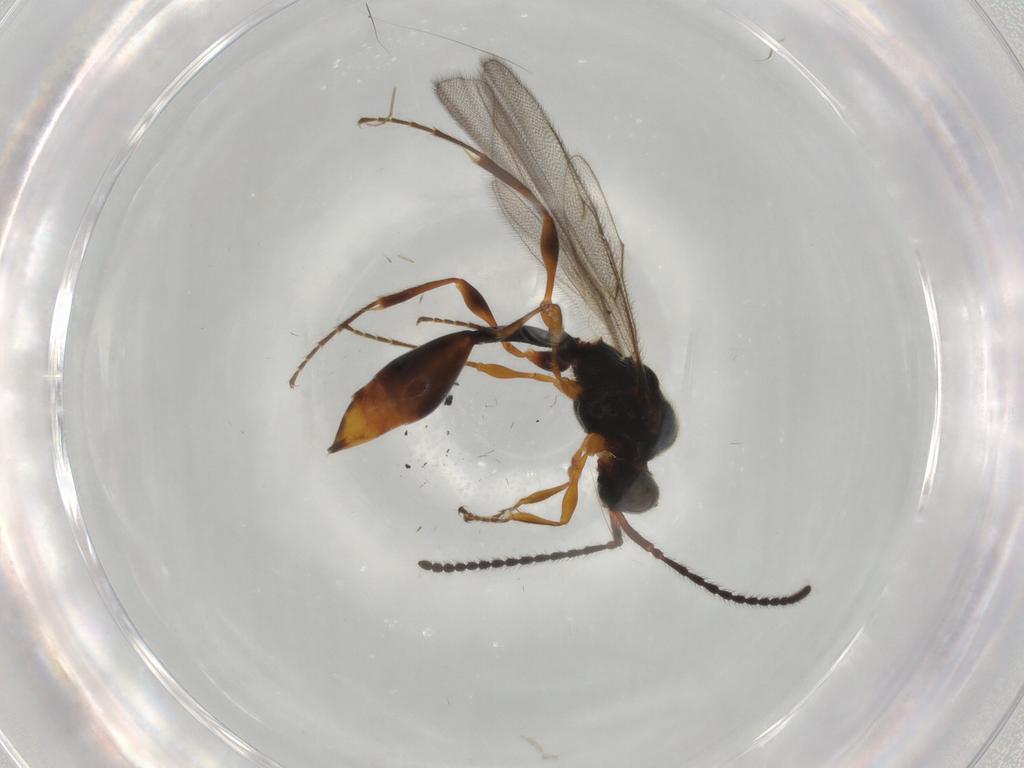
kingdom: Animalia
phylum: Arthropoda
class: Insecta
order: Hymenoptera
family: Diapriidae
